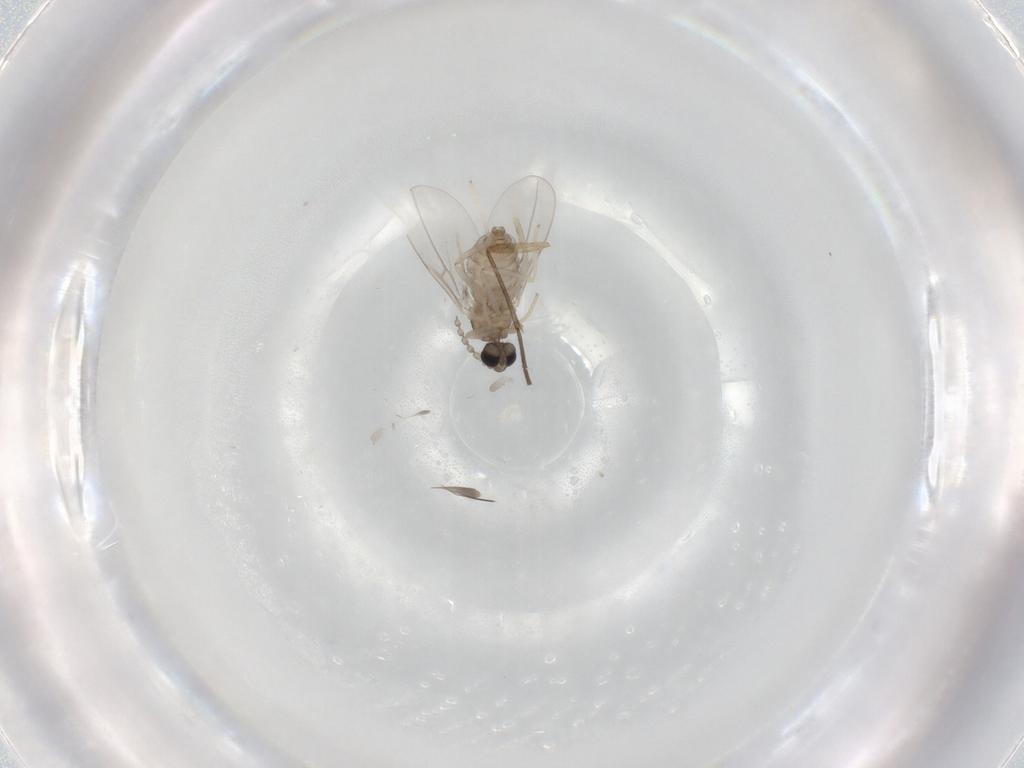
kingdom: Animalia
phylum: Arthropoda
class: Insecta
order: Diptera
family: Cecidomyiidae
